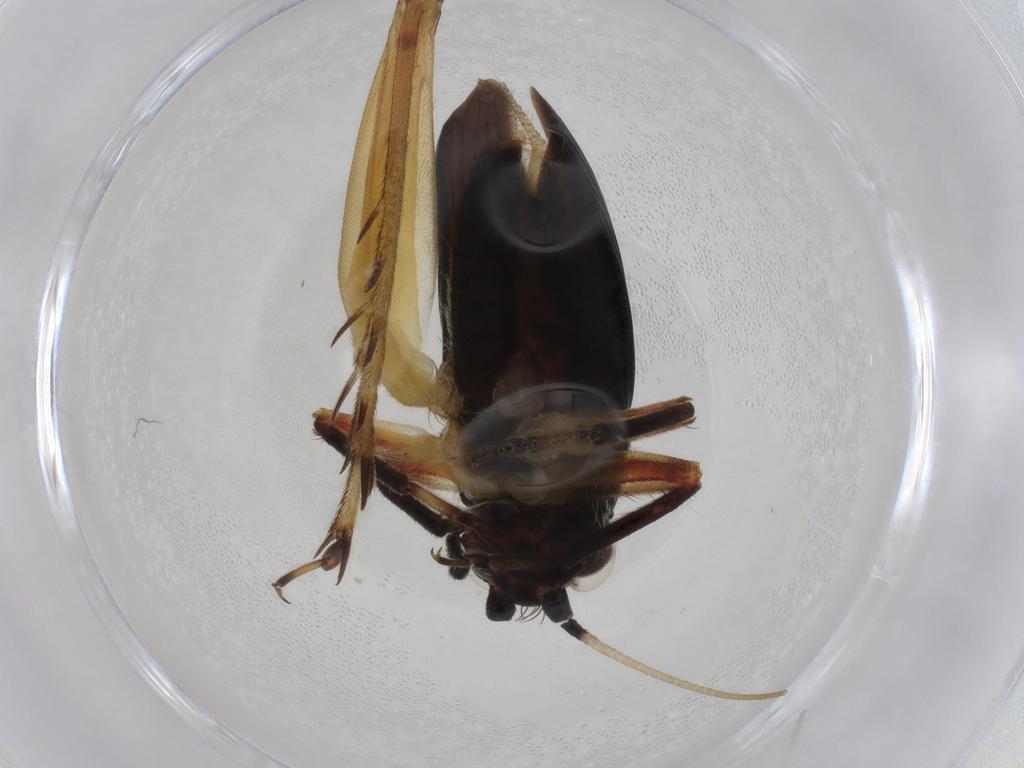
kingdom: Animalia
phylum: Arthropoda
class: Insecta
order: Orthoptera
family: Trigonidiidae
